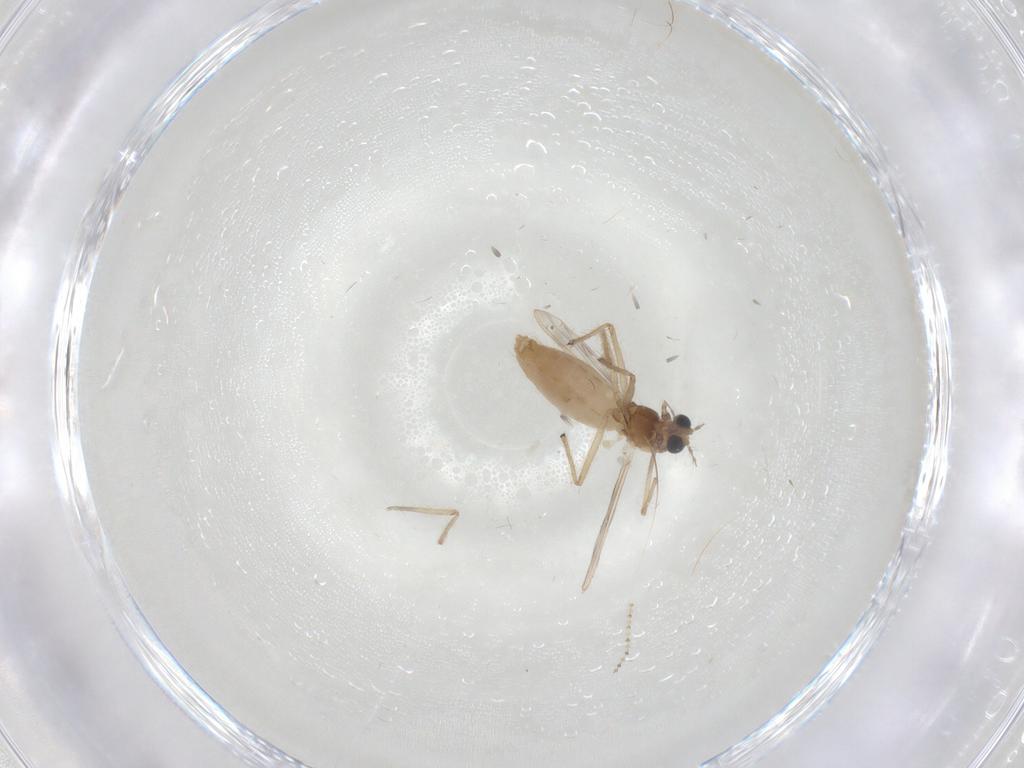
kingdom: Animalia
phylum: Arthropoda
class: Insecta
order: Diptera
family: Chironomidae
